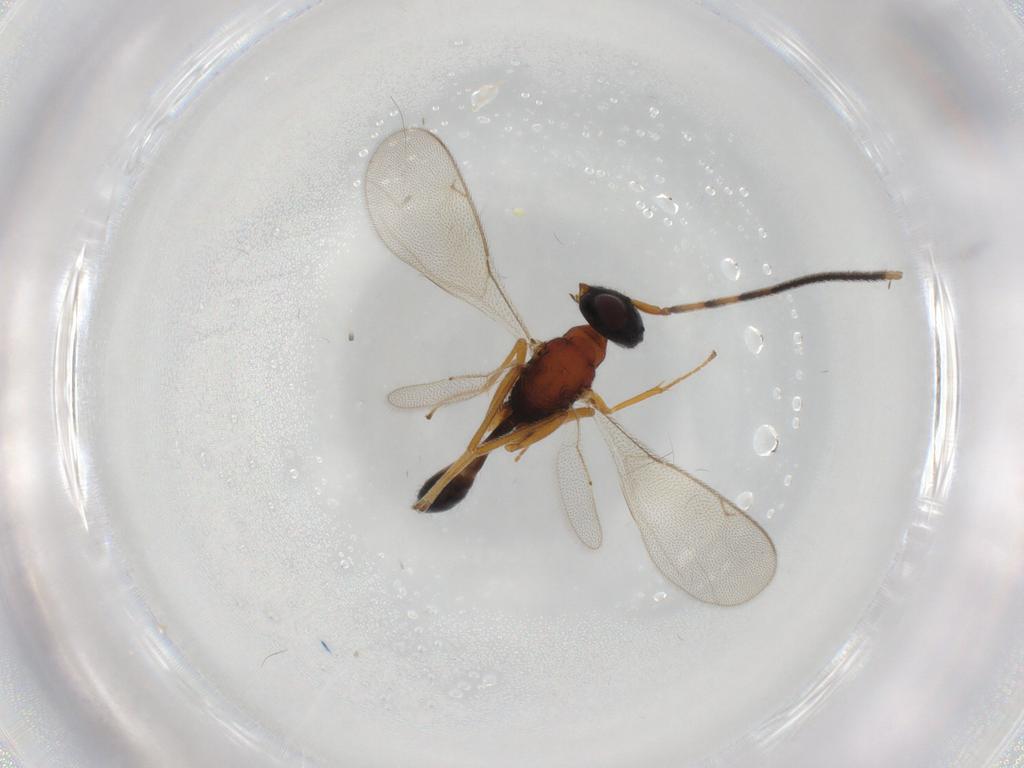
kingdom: Animalia
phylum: Arthropoda
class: Insecta
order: Hymenoptera
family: Pteromalidae
